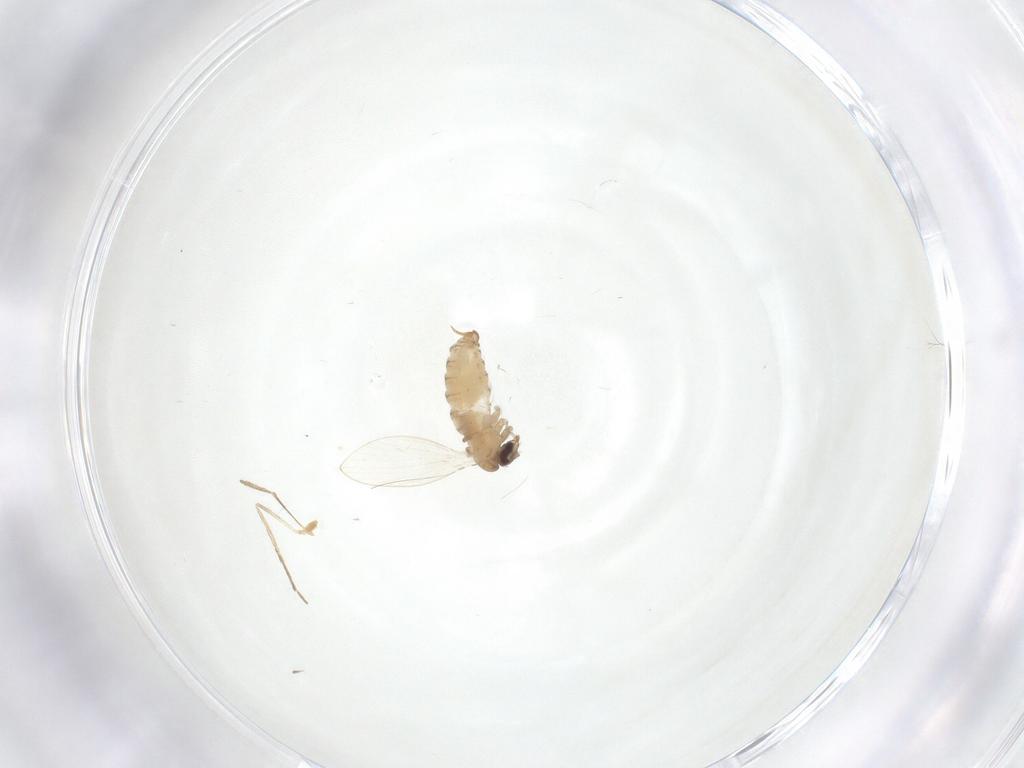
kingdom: Animalia
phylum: Arthropoda
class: Insecta
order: Diptera
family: Psychodidae
